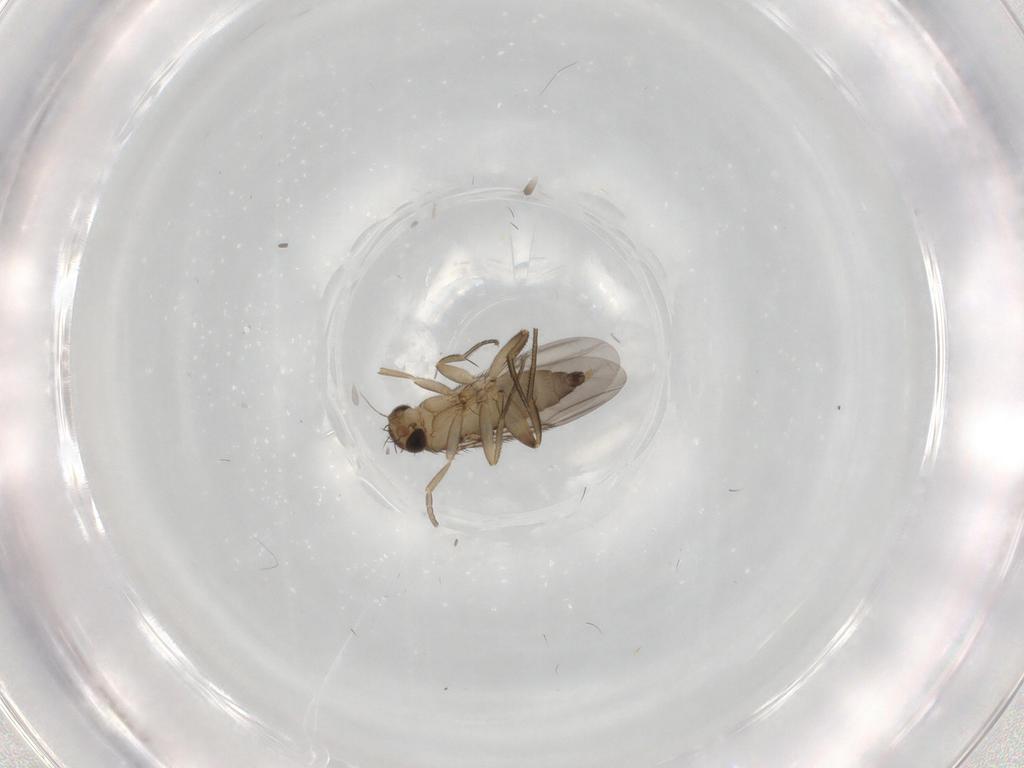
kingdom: Animalia
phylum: Arthropoda
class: Insecta
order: Diptera
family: Phoridae
